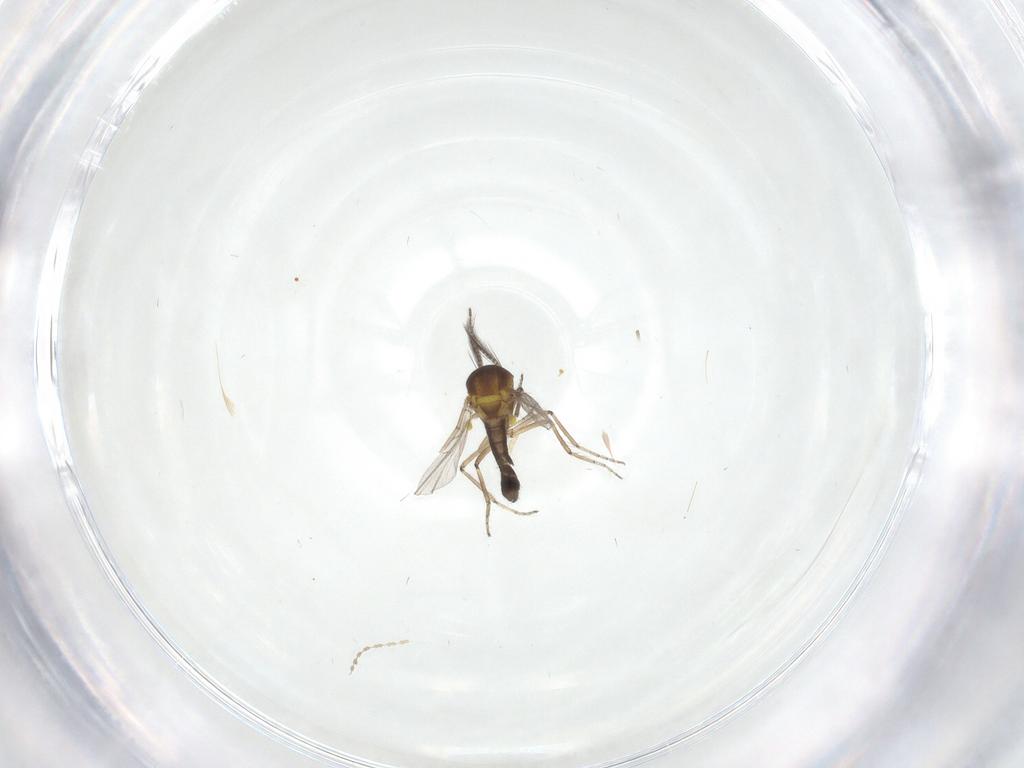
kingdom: Animalia
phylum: Arthropoda
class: Insecta
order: Diptera
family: Ceratopogonidae
